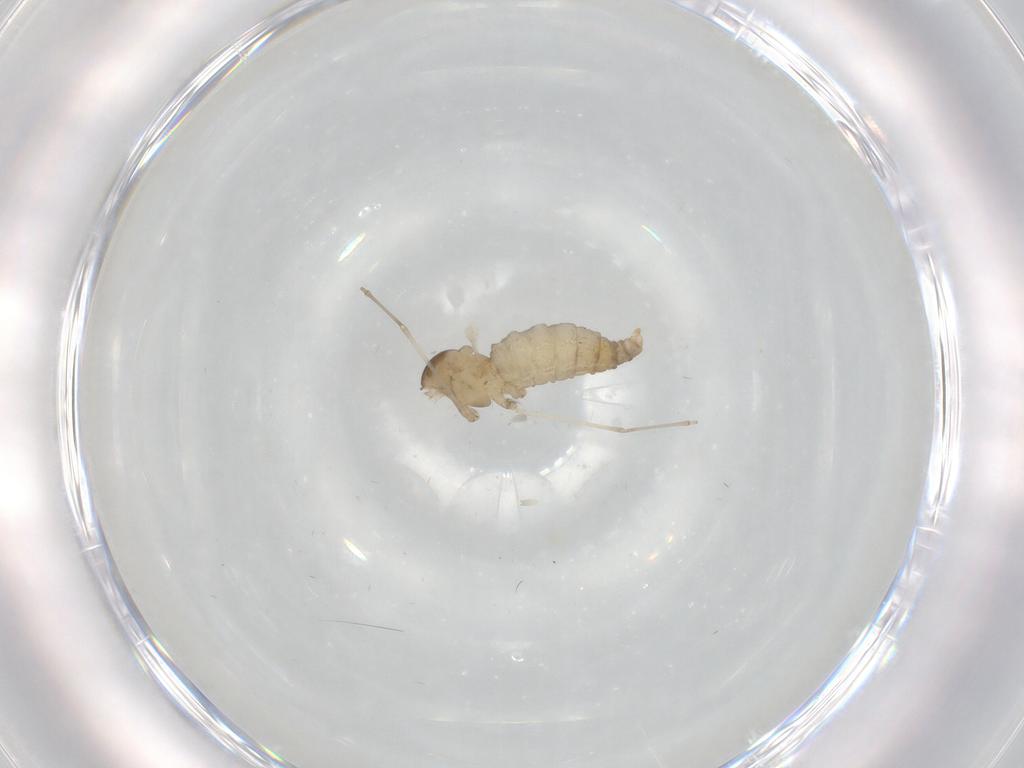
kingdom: Animalia
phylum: Arthropoda
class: Insecta
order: Diptera
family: Cecidomyiidae
